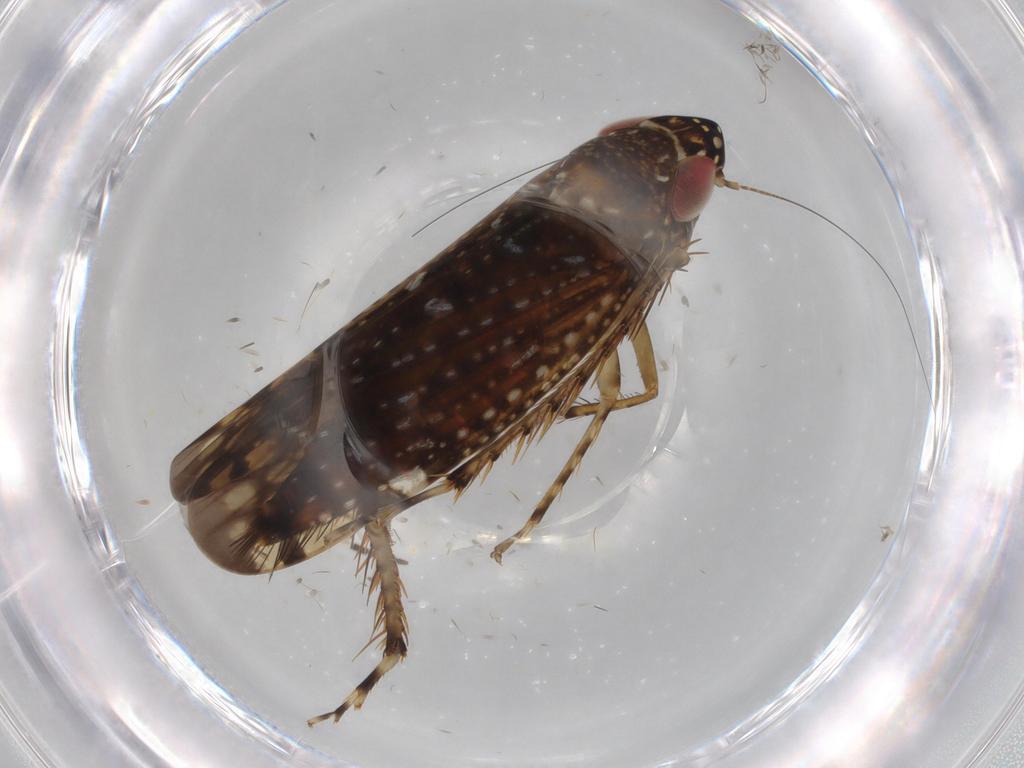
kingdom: Animalia
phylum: Arthropoda
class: Insecta
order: Hemiptera
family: Cicadellidae
